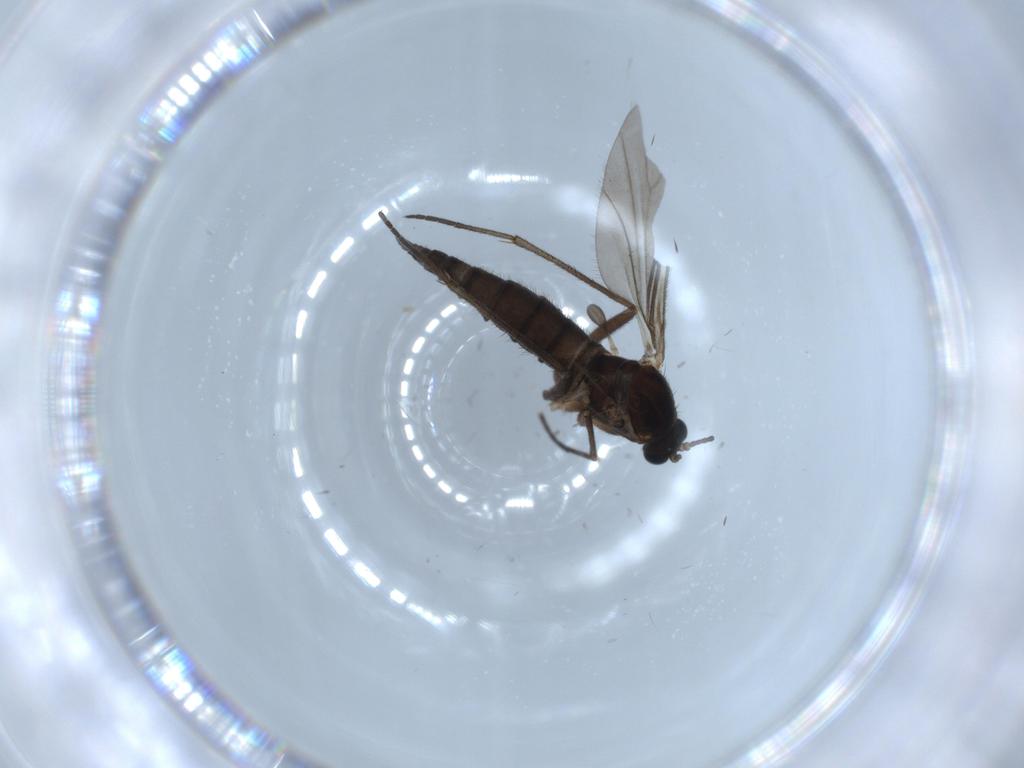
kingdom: Animalia
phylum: Arthropoda
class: Insecta
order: Diptera
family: Sciaridae
